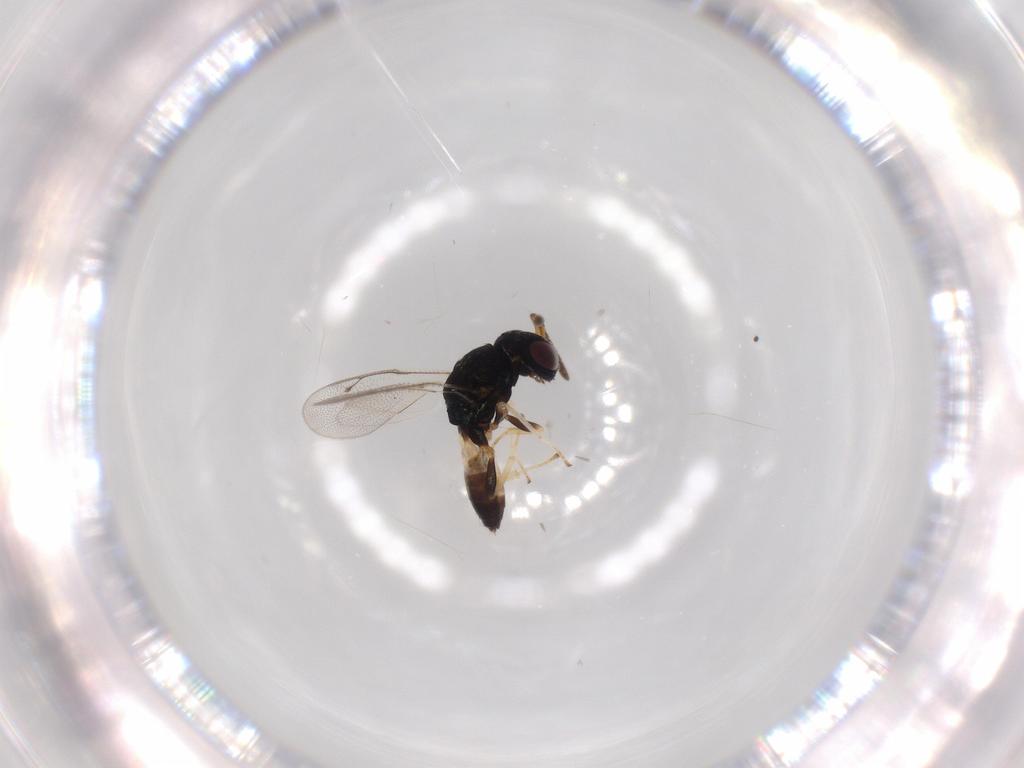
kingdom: Animalia
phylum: Arthropoda
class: Insecta
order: Hymenoptera
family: Pteromalidae
